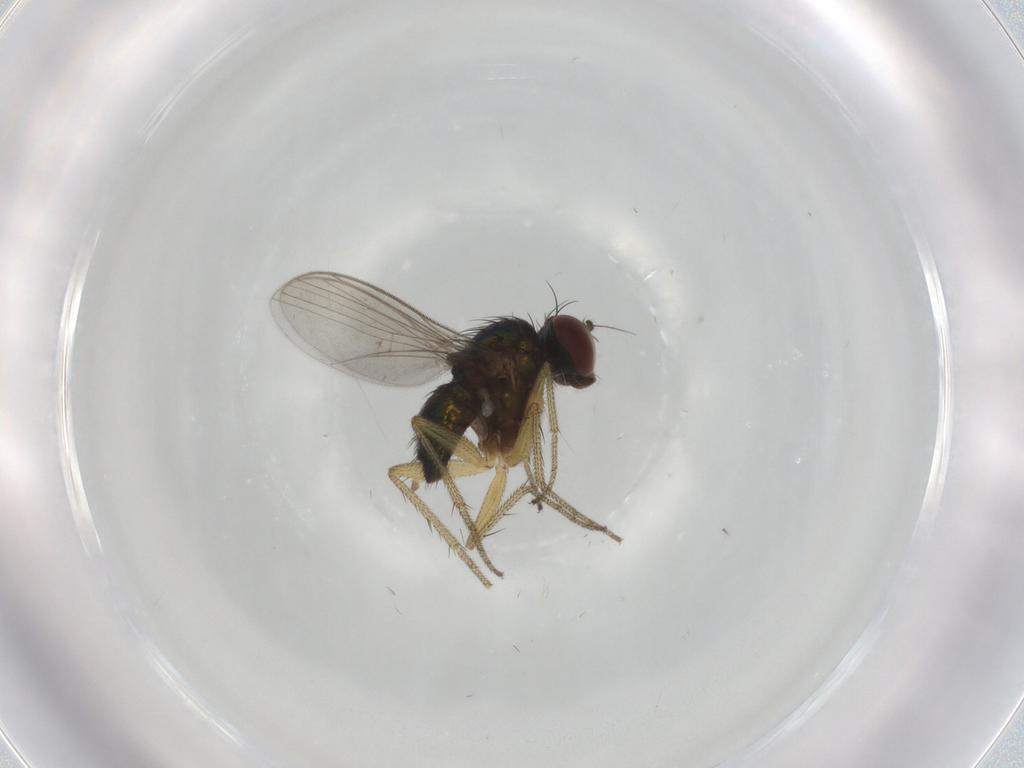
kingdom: Animalia
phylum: Arthropoda
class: Insecta
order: Diptera
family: Dolichopodidae
